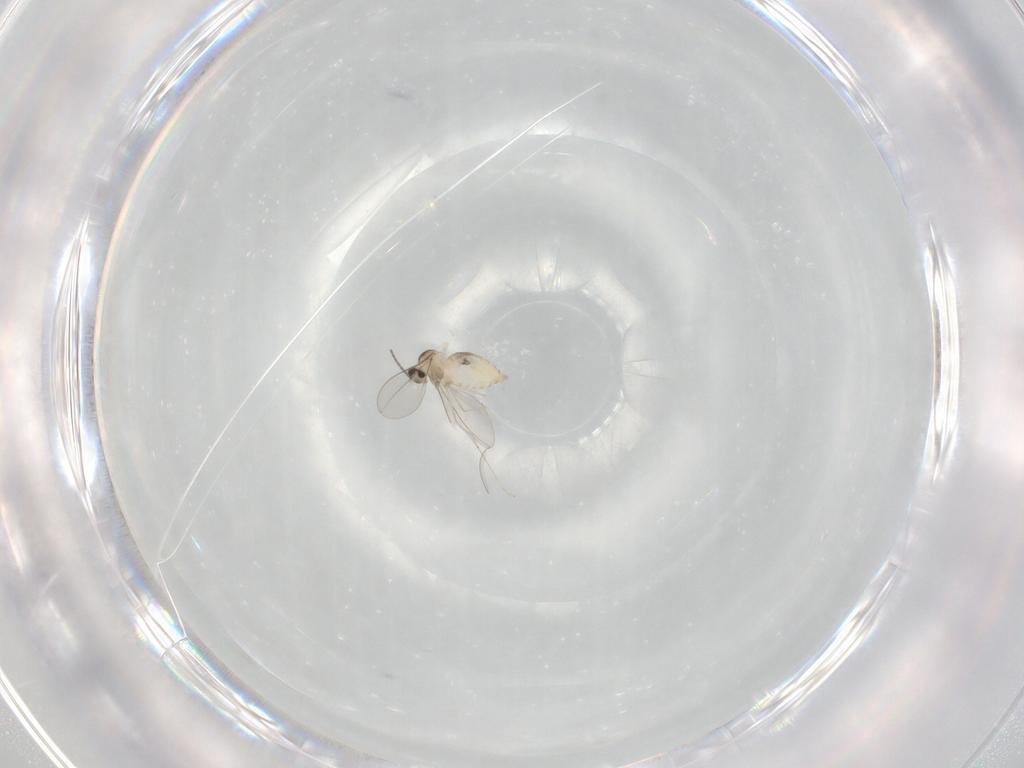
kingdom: Animalia
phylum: Arthropoda
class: Insecta
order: Diptera
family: Cecidomyiidae
